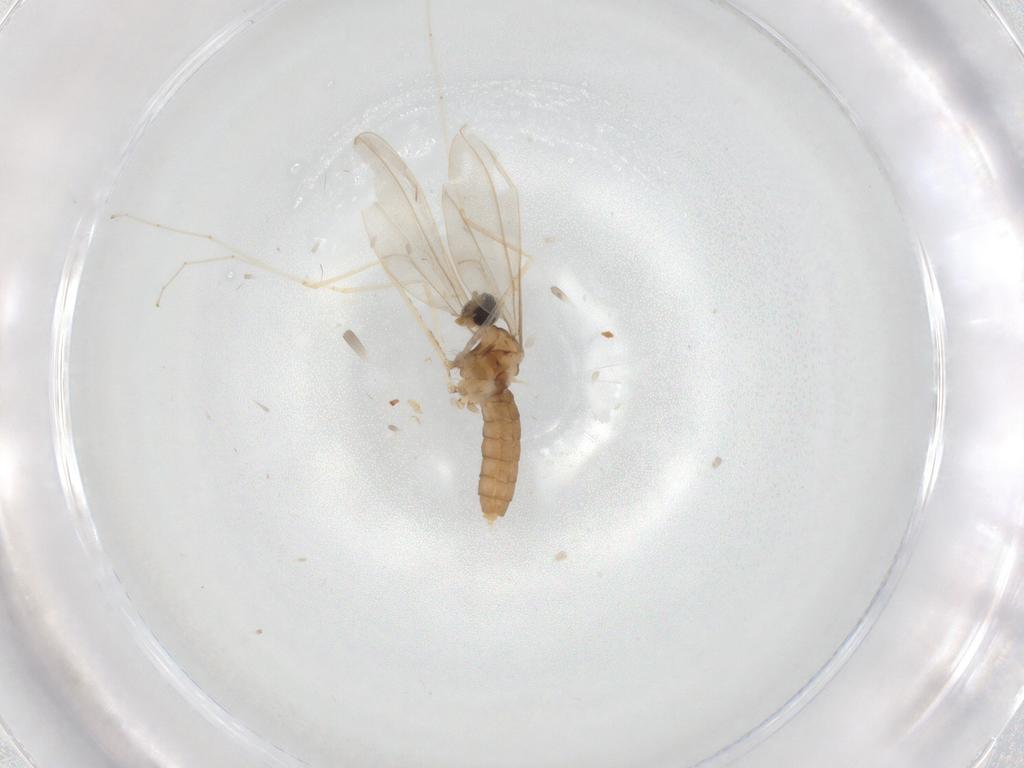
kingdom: Animalia
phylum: Arthropoda
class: Insecta
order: Diptera
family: Cecidomyiidae
